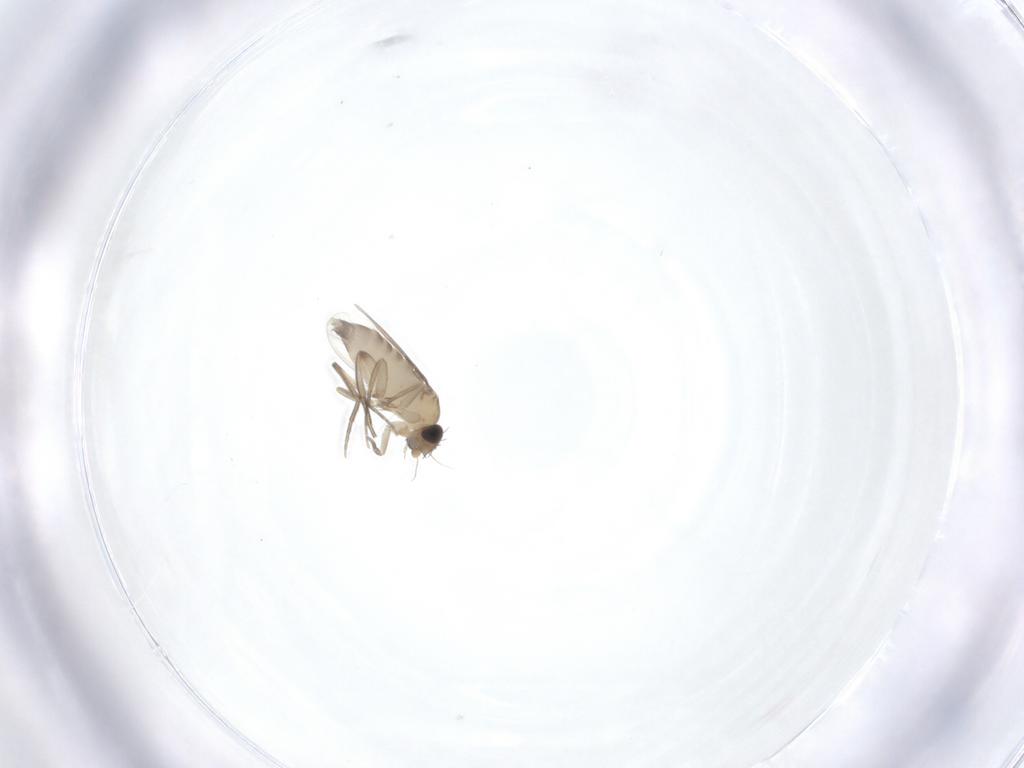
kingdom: Animalia
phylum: Arthropoda
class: Insecta
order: Diptera
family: Phoridae
